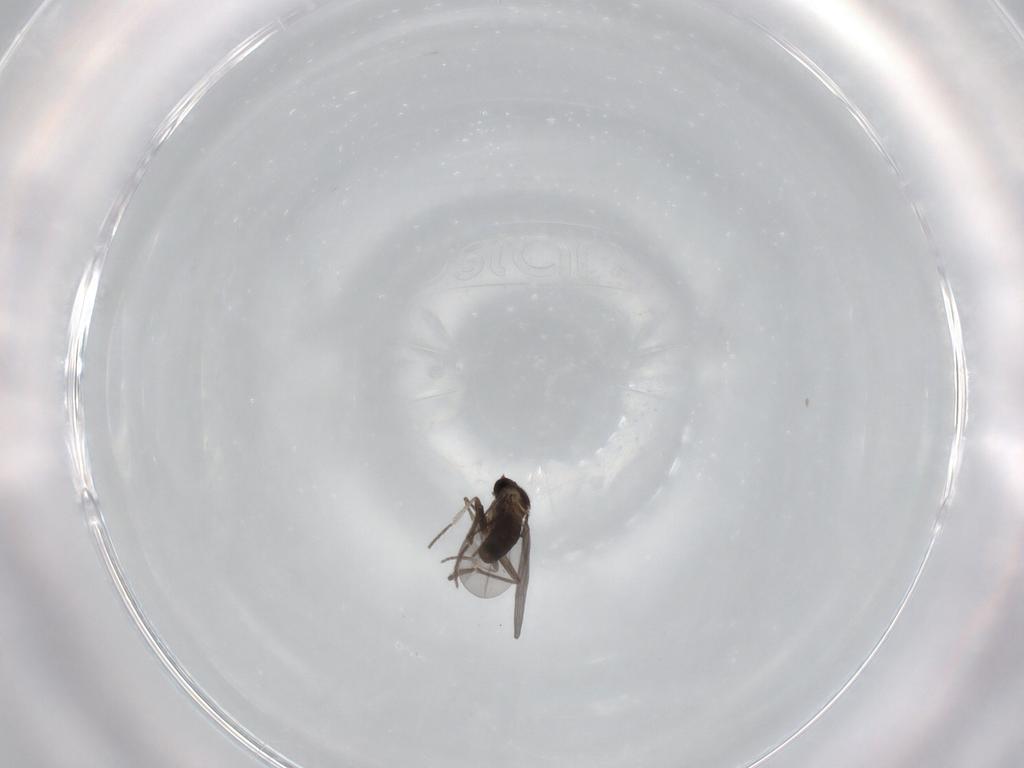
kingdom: Animalia
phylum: Arthropoda
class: Insecta
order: Diptera
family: Phoridae
